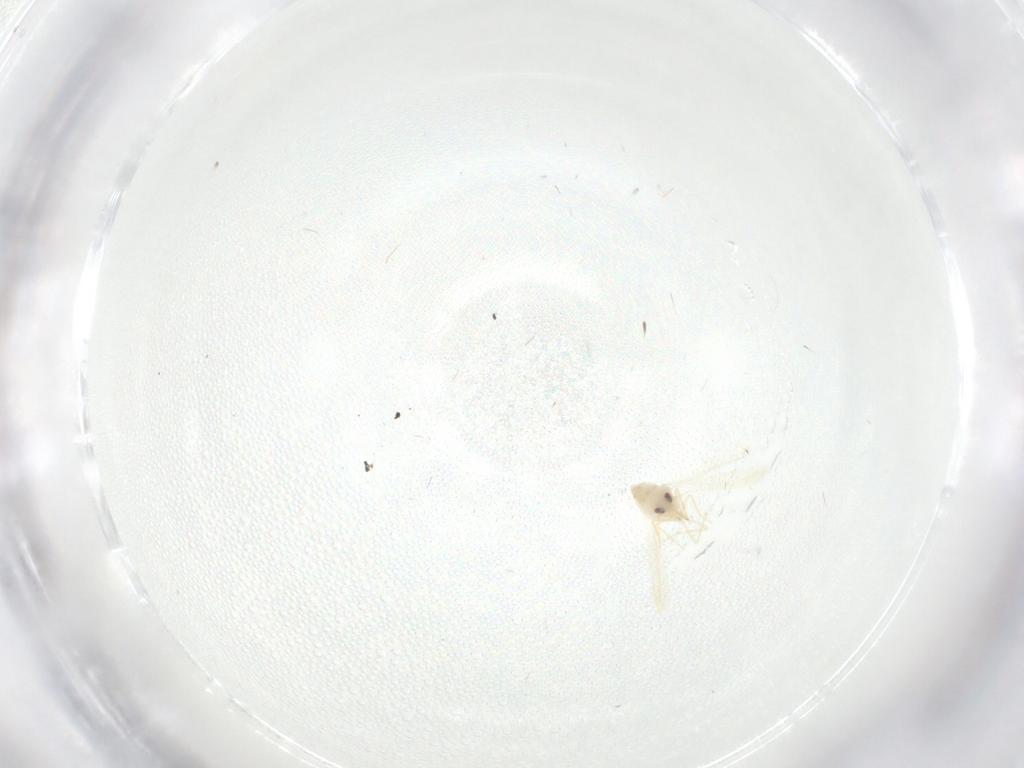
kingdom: Animalia
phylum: Arthropoda
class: Insecta
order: Hemiptera
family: Aleyrodidae
